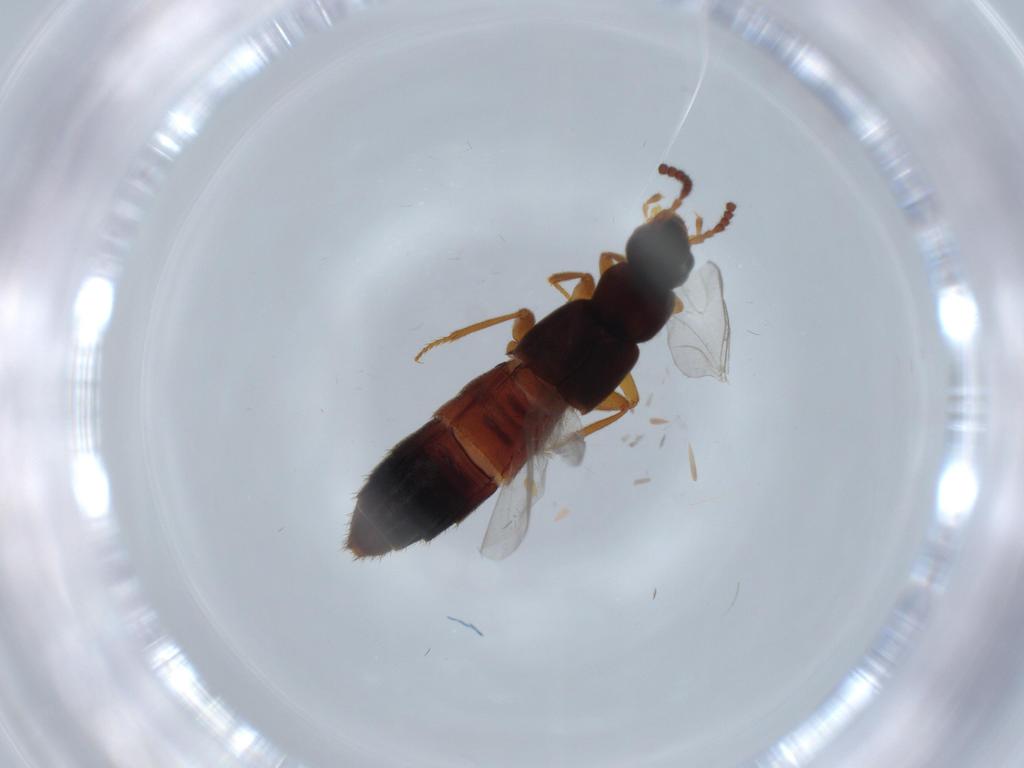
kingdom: Animalia
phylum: Arthropoda
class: Insecta
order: Coleoptera
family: Staphylinidae
